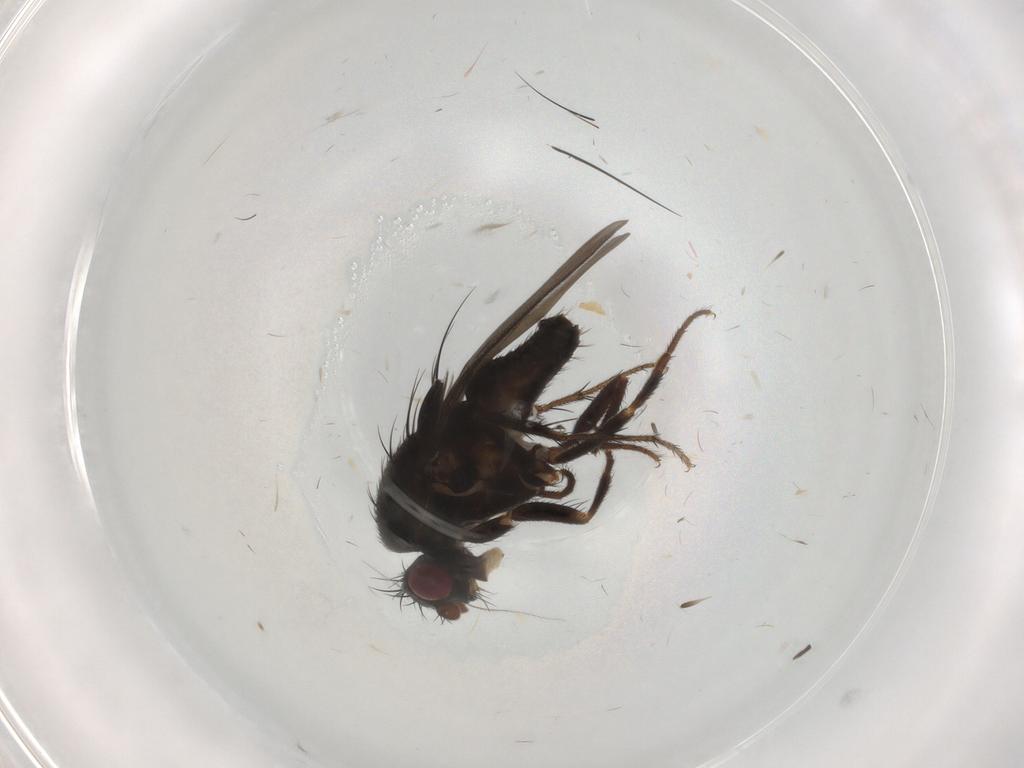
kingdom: Animalia
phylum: Arthropoda
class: Insecta
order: Diptera
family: Sphaeroceridae
